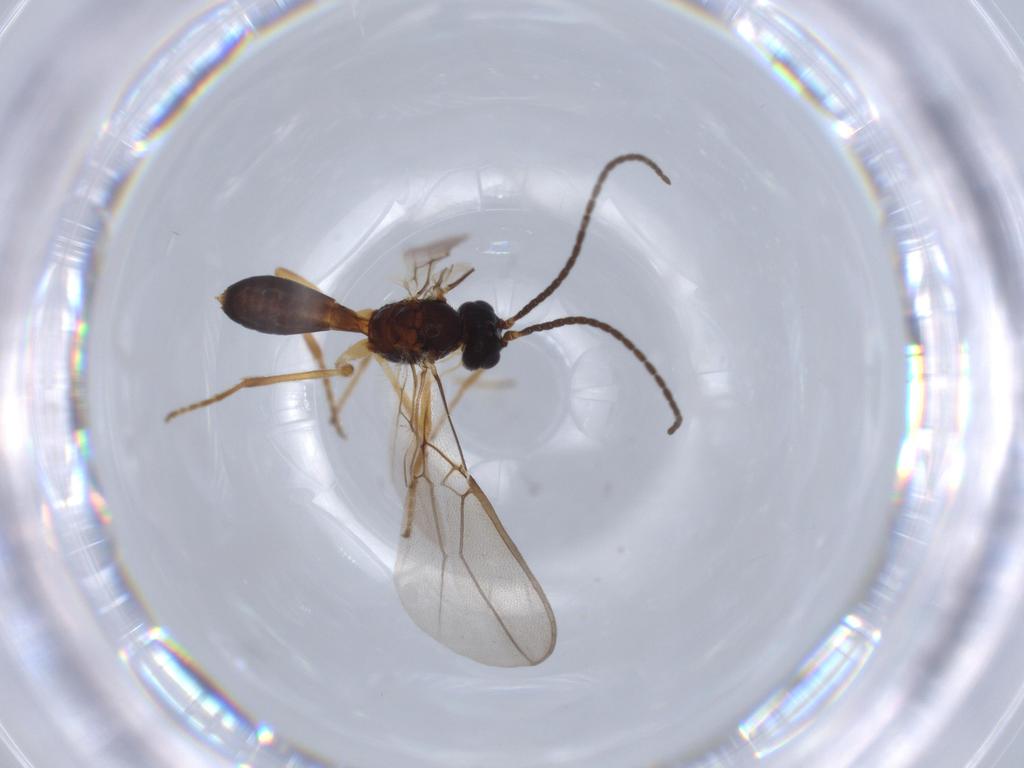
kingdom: Animalia
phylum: Arthropoda
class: Insecta
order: Hymenoptera
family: Braconidae
